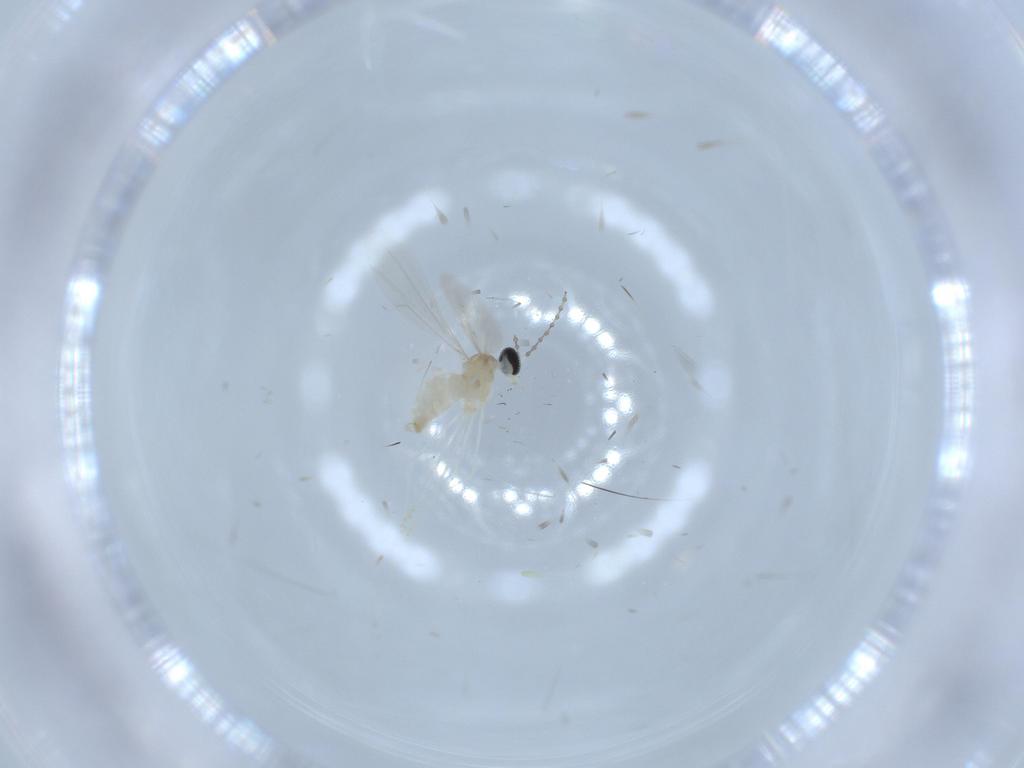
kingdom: Animalia
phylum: Arthropoda
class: Insecta
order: Diptera
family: Cecidomyiidae
